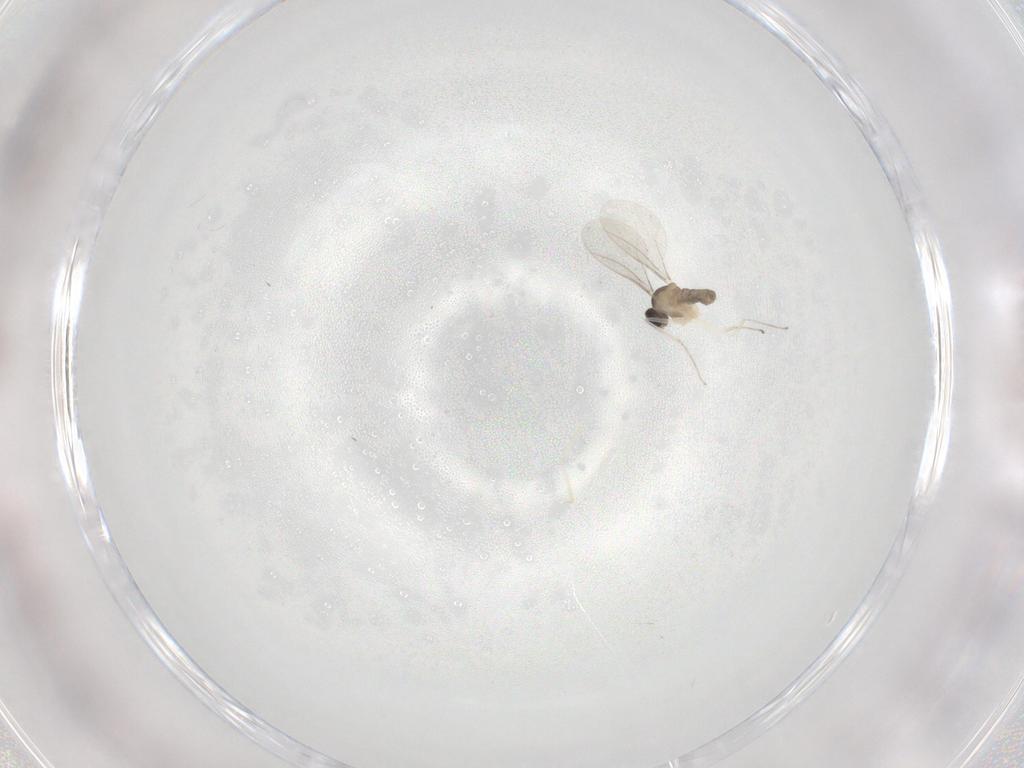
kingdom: Animalia
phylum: Arthropoda
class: Insecta
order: Diptera
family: Cecidomyiidae
